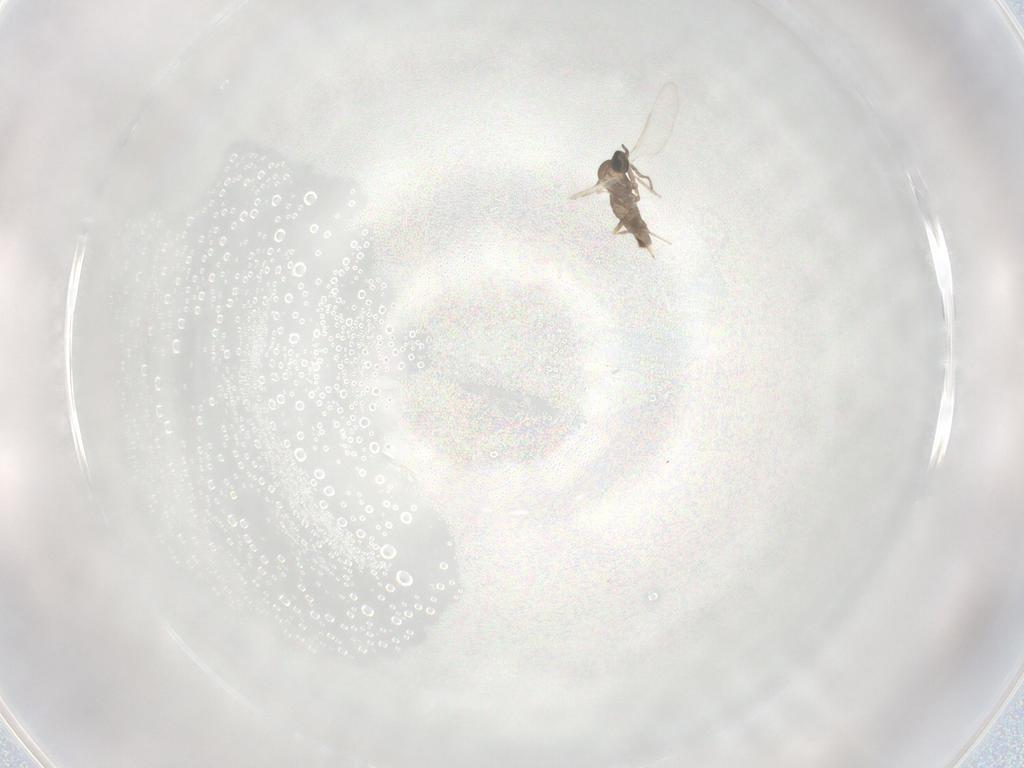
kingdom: Animalia
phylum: Arthropoda
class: Insecta
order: Diptera
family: Cecidomyiidae
